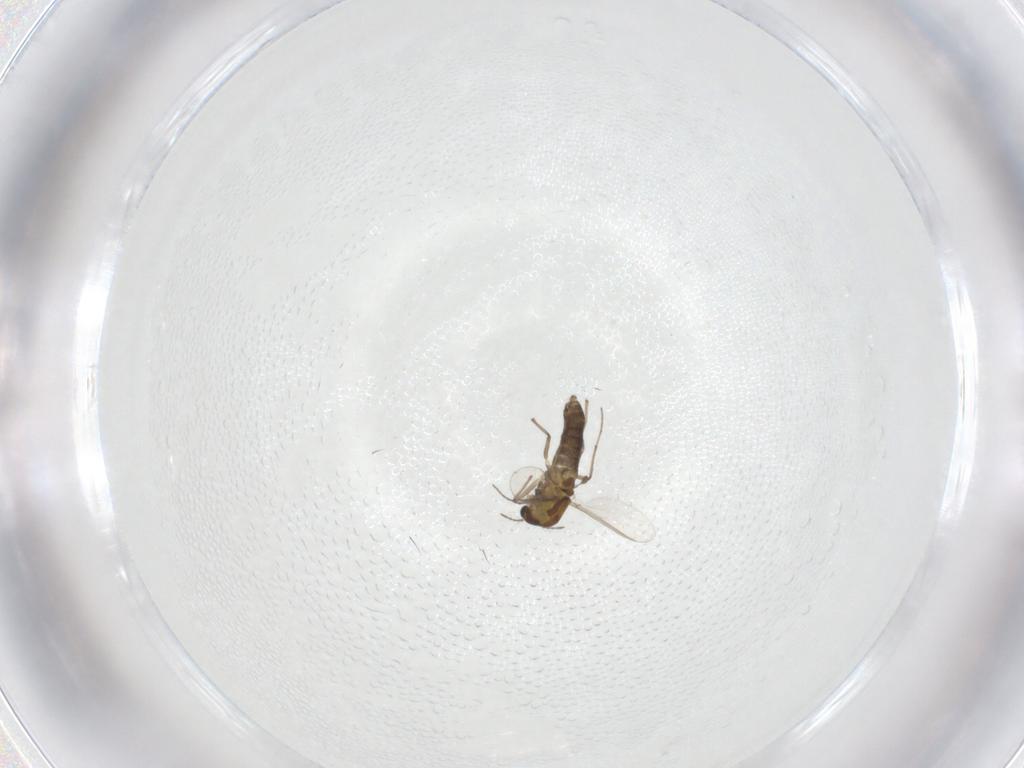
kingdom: Animalia
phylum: Arthropoda
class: Insecta
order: Diptera
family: Chironomidae
